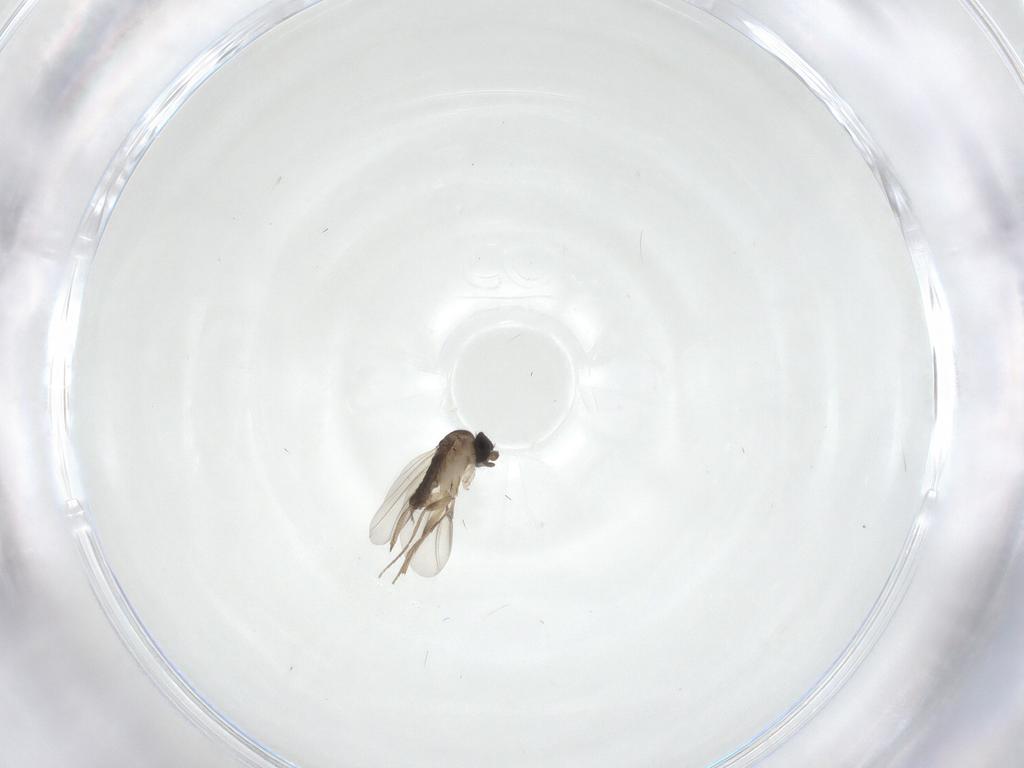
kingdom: Animalia
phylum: Arthropoda
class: Insecta
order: Diptera
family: Phoridae
